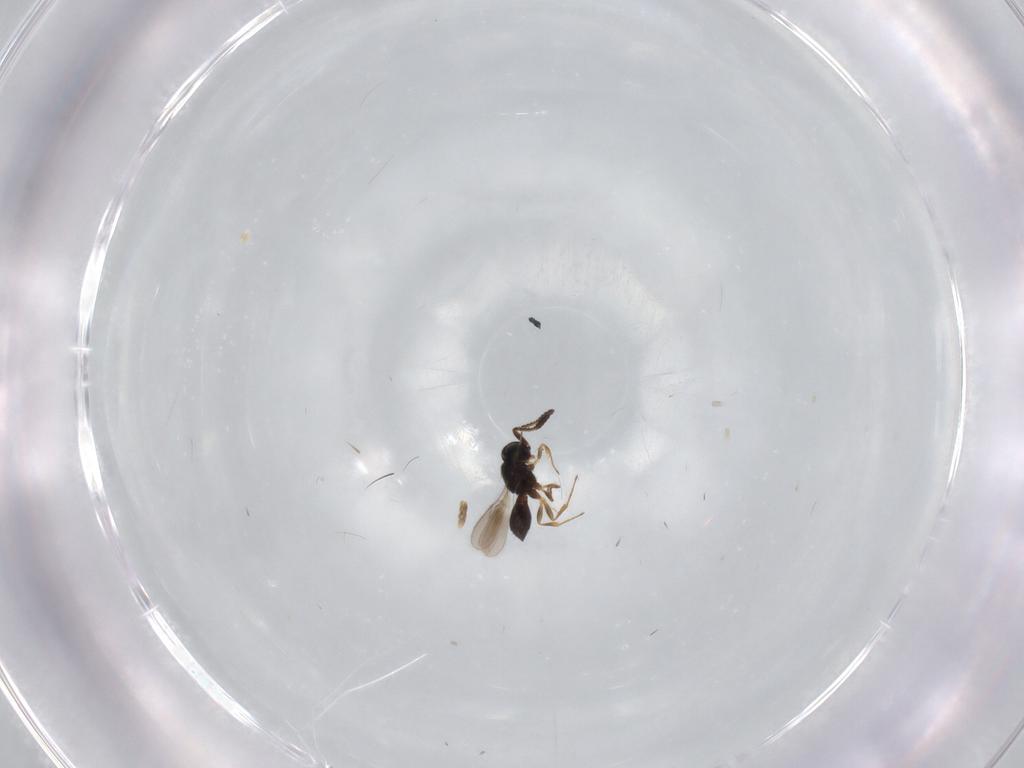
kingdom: Animalia
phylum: Arthropoda
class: Insecta
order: Hymenoptera
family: Scelionidae
